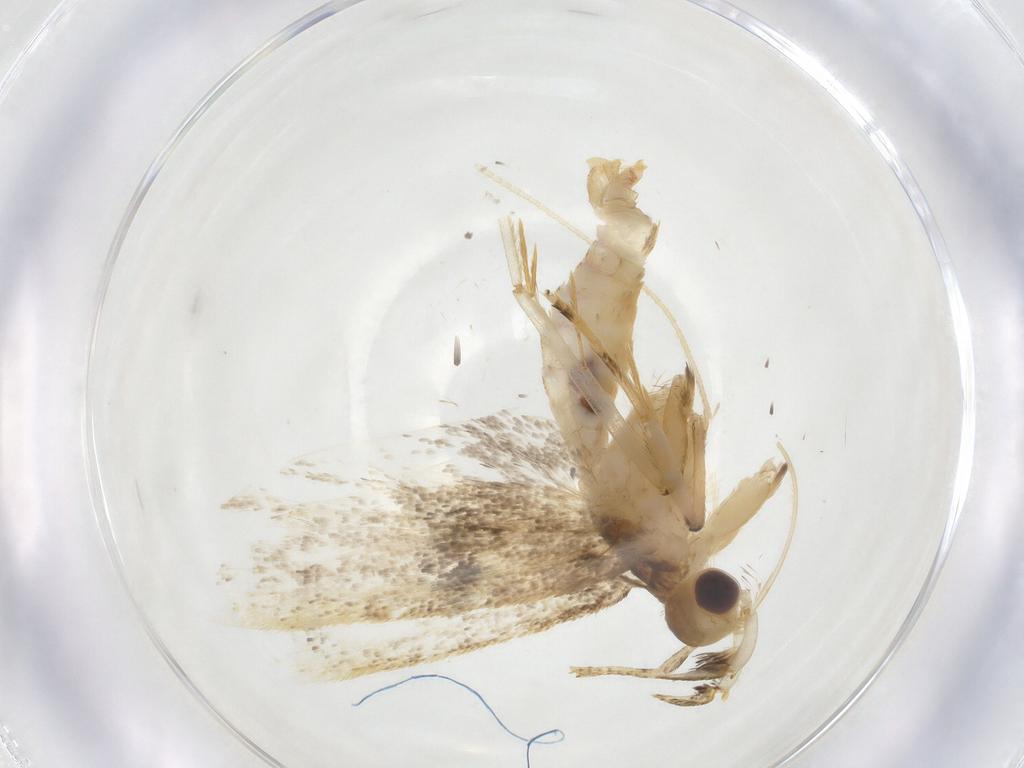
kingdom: Animalia
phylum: Arthropoda
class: Insecta
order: Lepidoptera
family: Lecithoceridae
